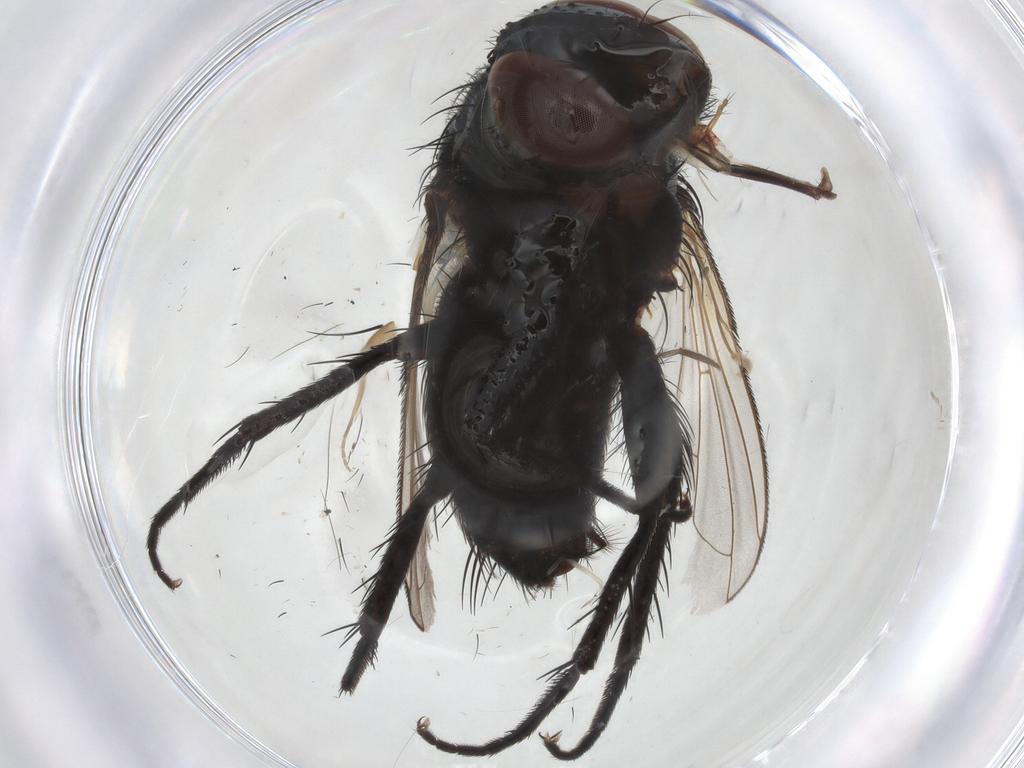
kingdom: Animalia
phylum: Arthropoda
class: Insecta
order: Diptera
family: Tachinidae
